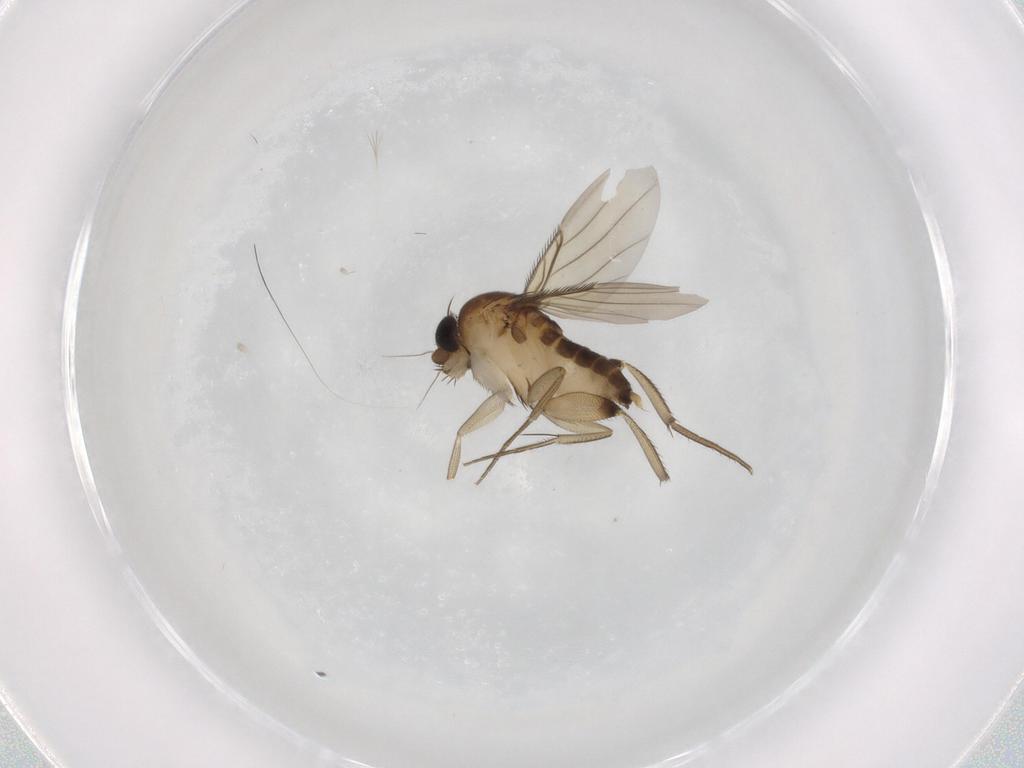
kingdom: Animalia
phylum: Arthropoda
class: Insecta
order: Diptera
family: Phoridae
